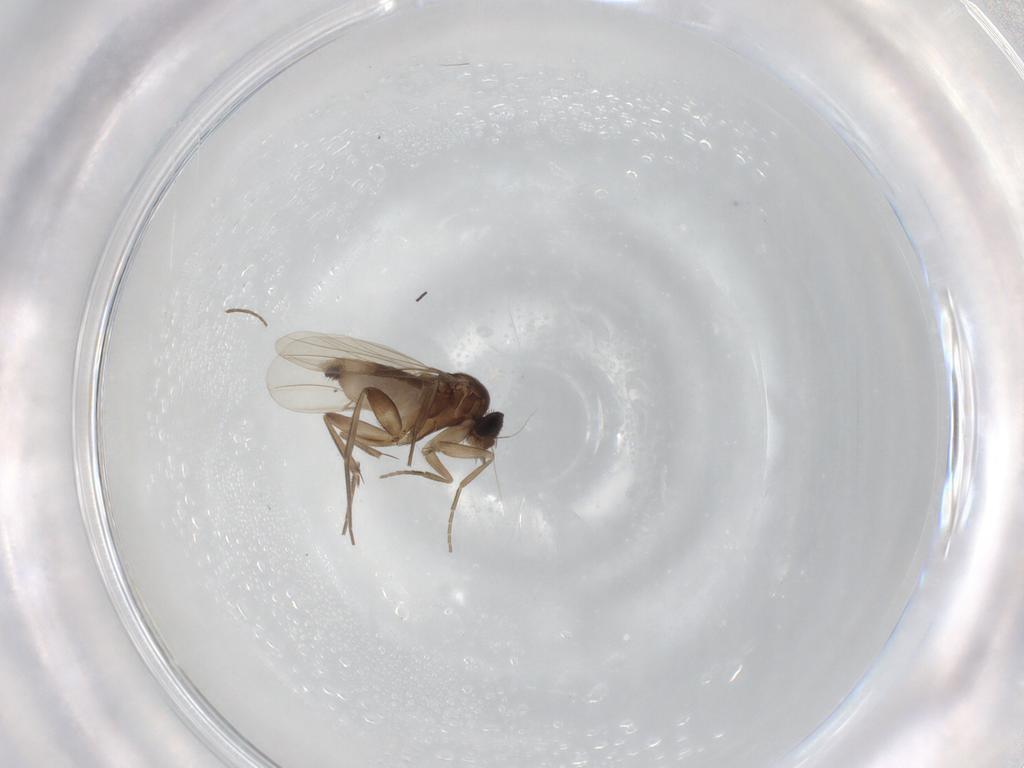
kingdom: Animalia
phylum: Arthropoda
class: Insecta
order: Diptera
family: Phoridae
